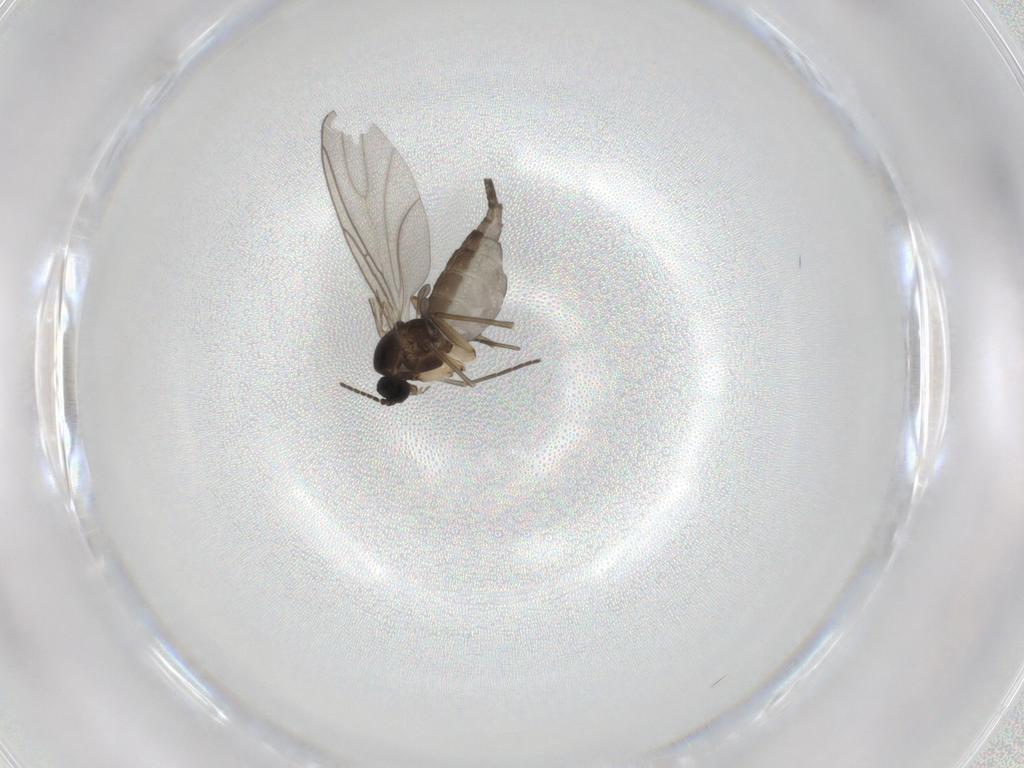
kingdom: Animalia
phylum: Arthropoda
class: Insecta
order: Diptera
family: Sciaridae
